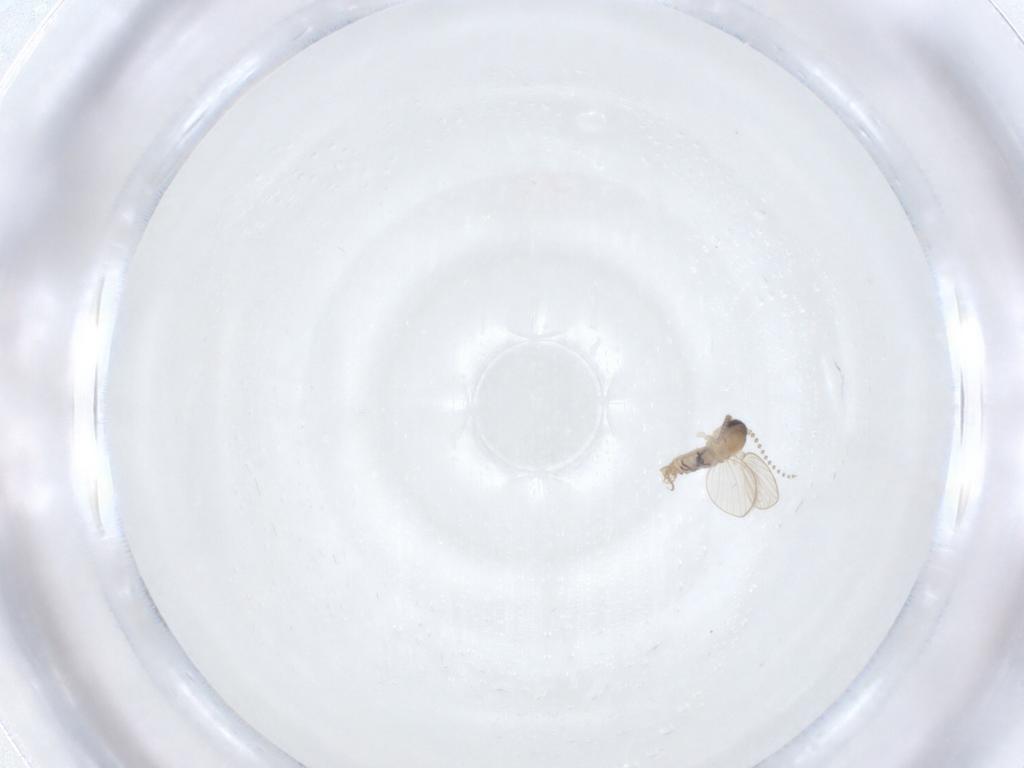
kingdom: Animalia
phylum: Arthropoda
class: Insecta
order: Diptera
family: Psychodidae
